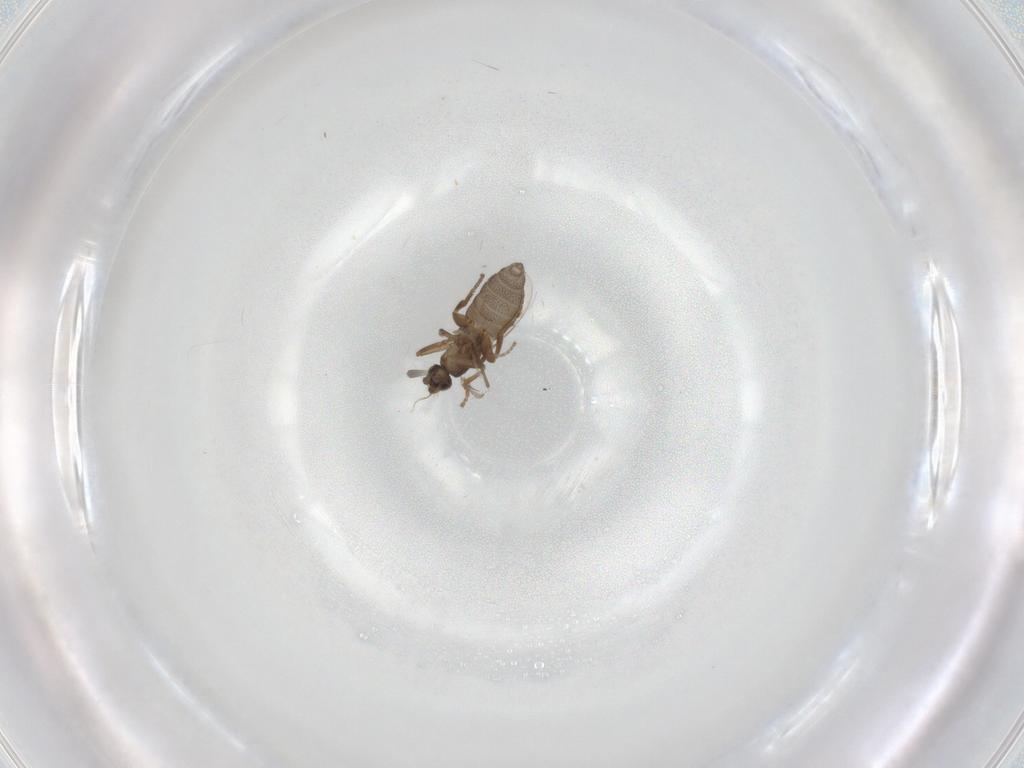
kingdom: Animalia
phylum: Arthropoda
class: Insecta
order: Diptera
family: Phoridae
